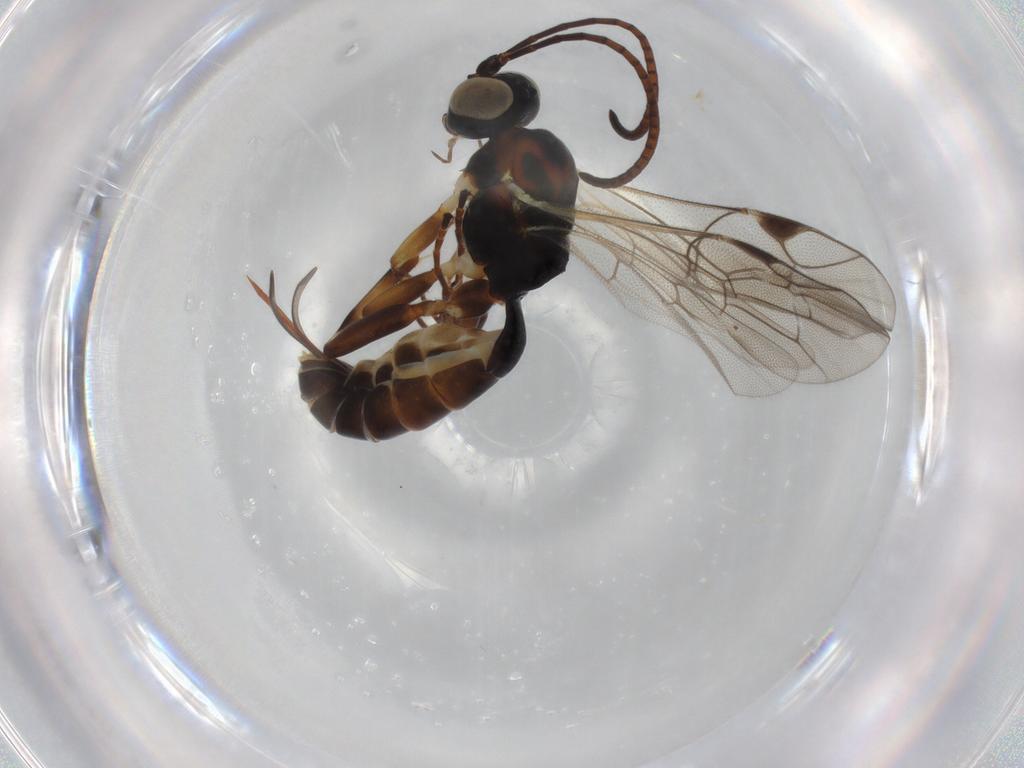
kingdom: Animalia
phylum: Arthropoda
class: Insecta
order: Hymenoptera
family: Ichneumonidae
